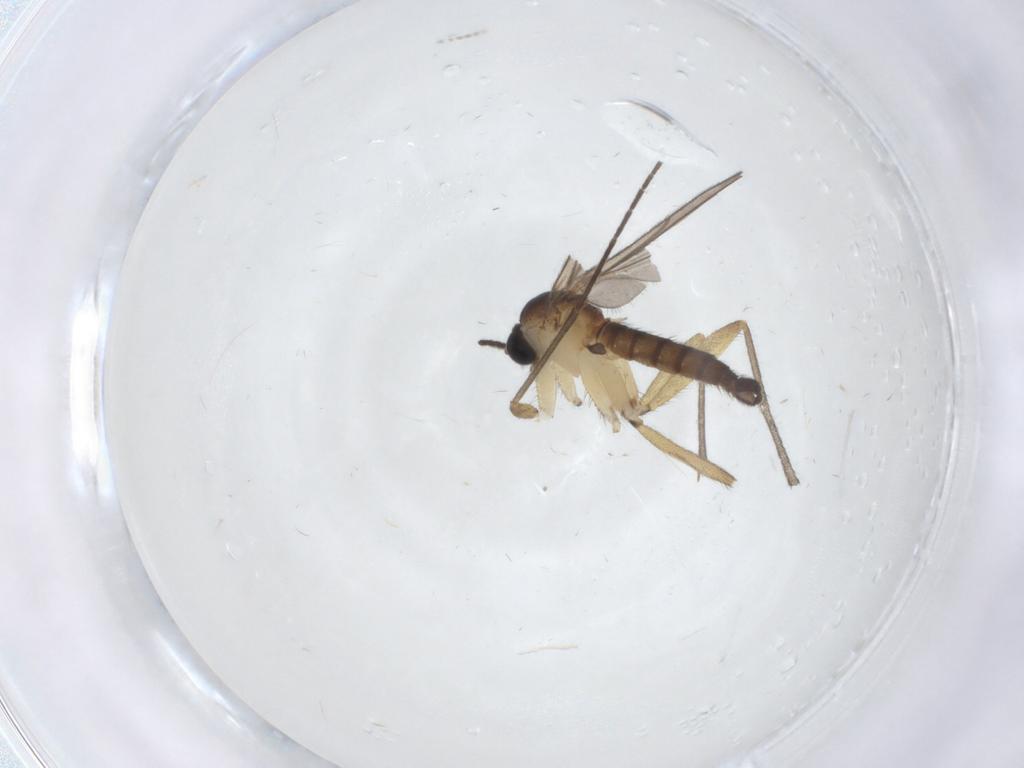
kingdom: Animalia
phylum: Arthropoda
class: Insecta
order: Diptera
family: Sciaridae
